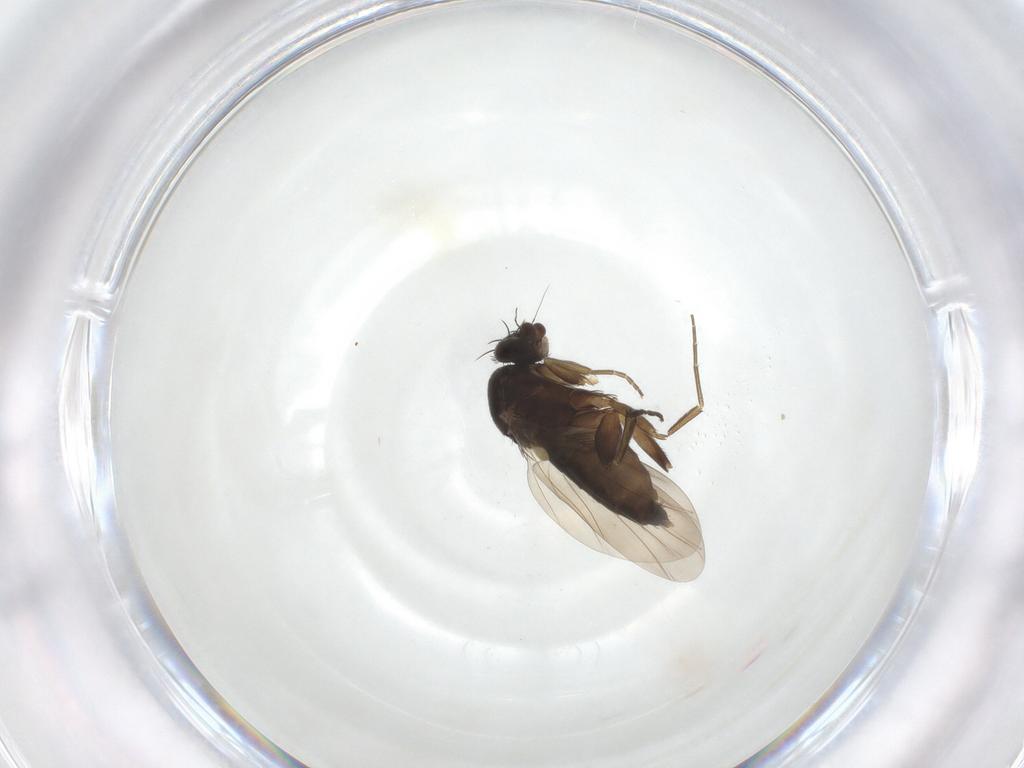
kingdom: Animalia
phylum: Arthropoda
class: Insecta
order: Diptera
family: Phoridae
